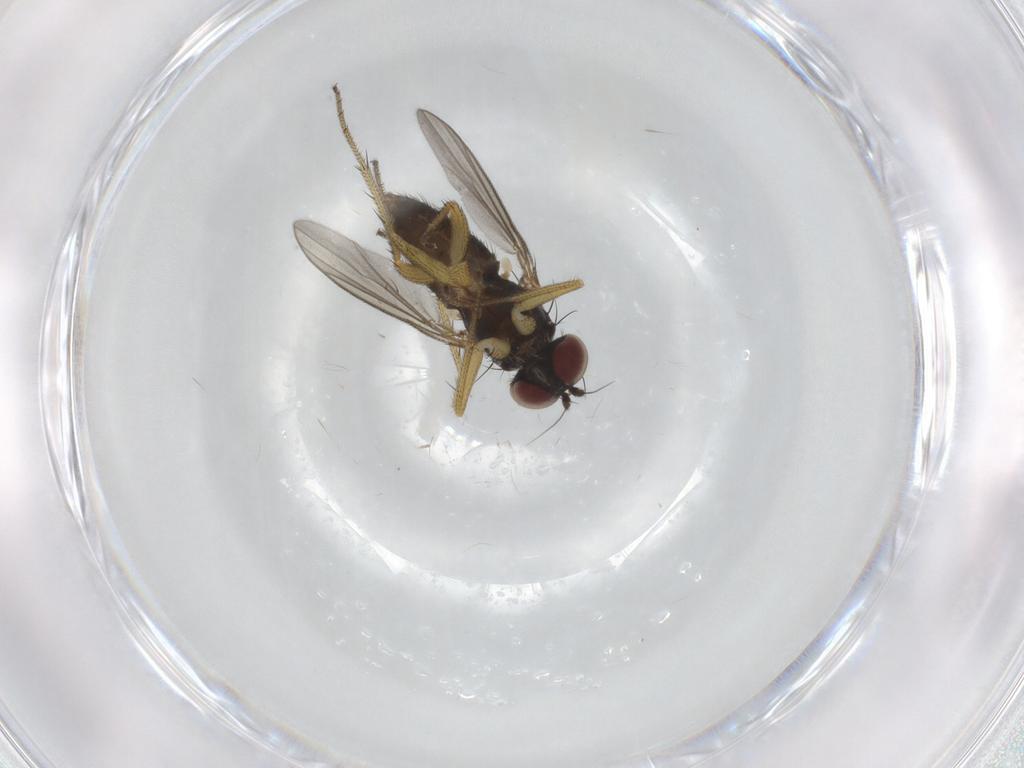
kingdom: Animalia
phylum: Arthropoda
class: Insecta
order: Diptera
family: Dolichopodidae
